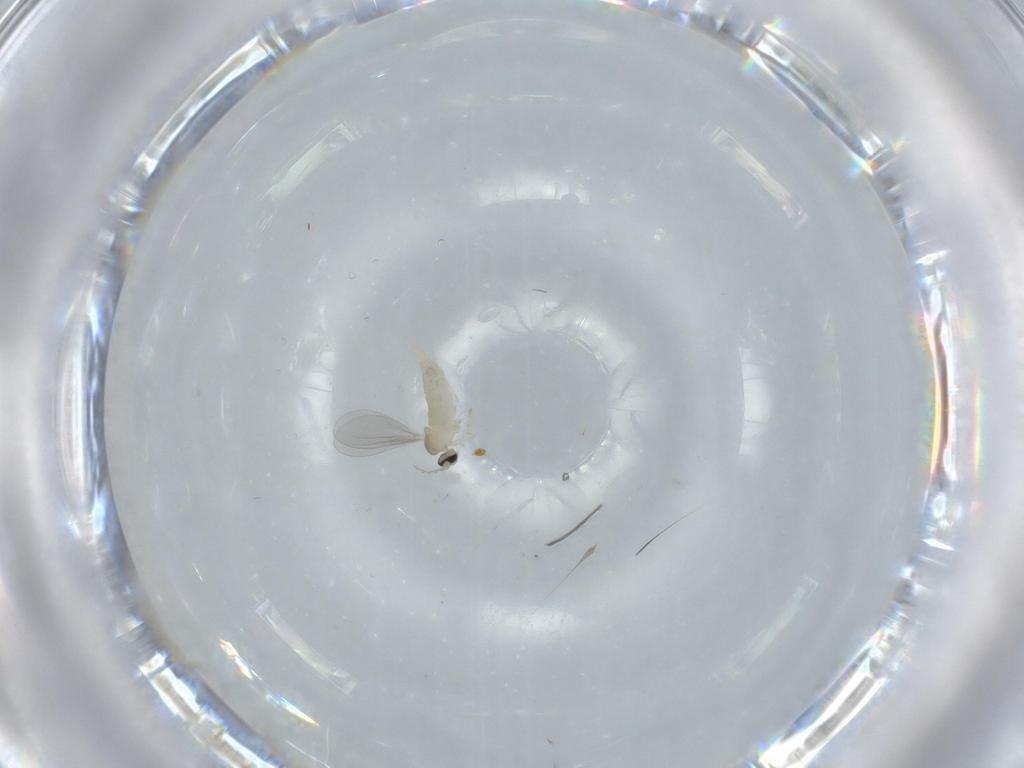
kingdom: Animalia
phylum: Arthropoda
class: Insecta
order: Diptera
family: Cecidomyiidae
